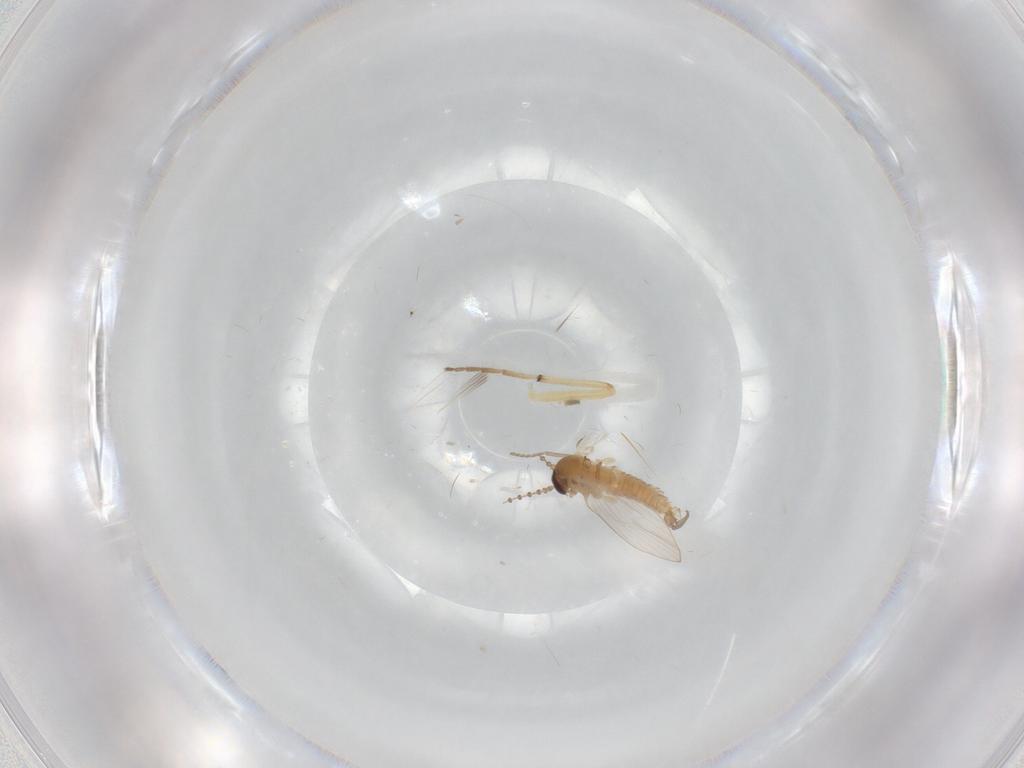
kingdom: Animalia
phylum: Arthropoda
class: Insecta
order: Diptera
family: Psychodidae
